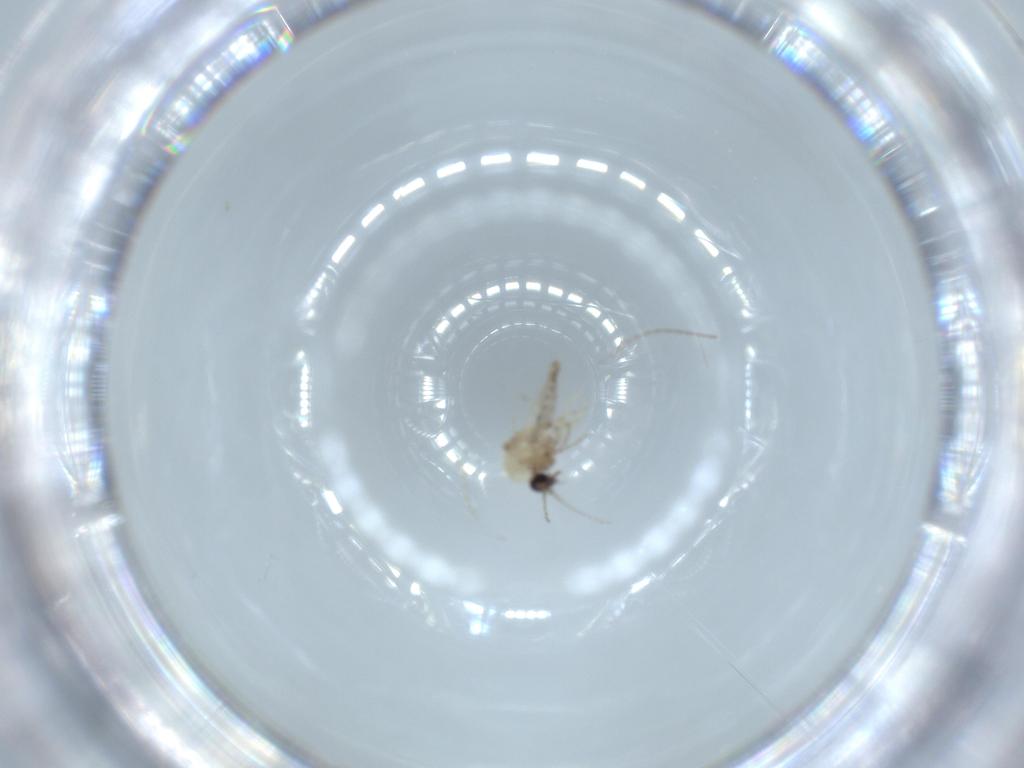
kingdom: Animalia
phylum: Arthropoda
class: Insecta
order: Diptera
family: Cecidomyiidae
